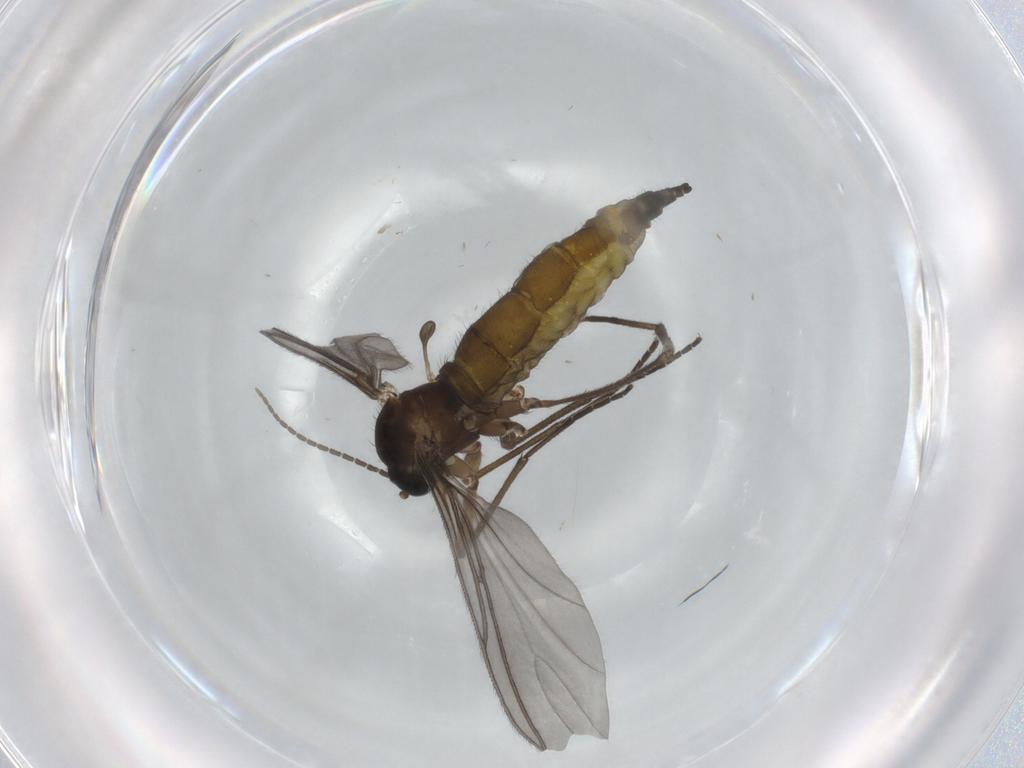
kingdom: Animalia
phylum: Arthropoda
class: Insecta
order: Diptera
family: Sciaridae
